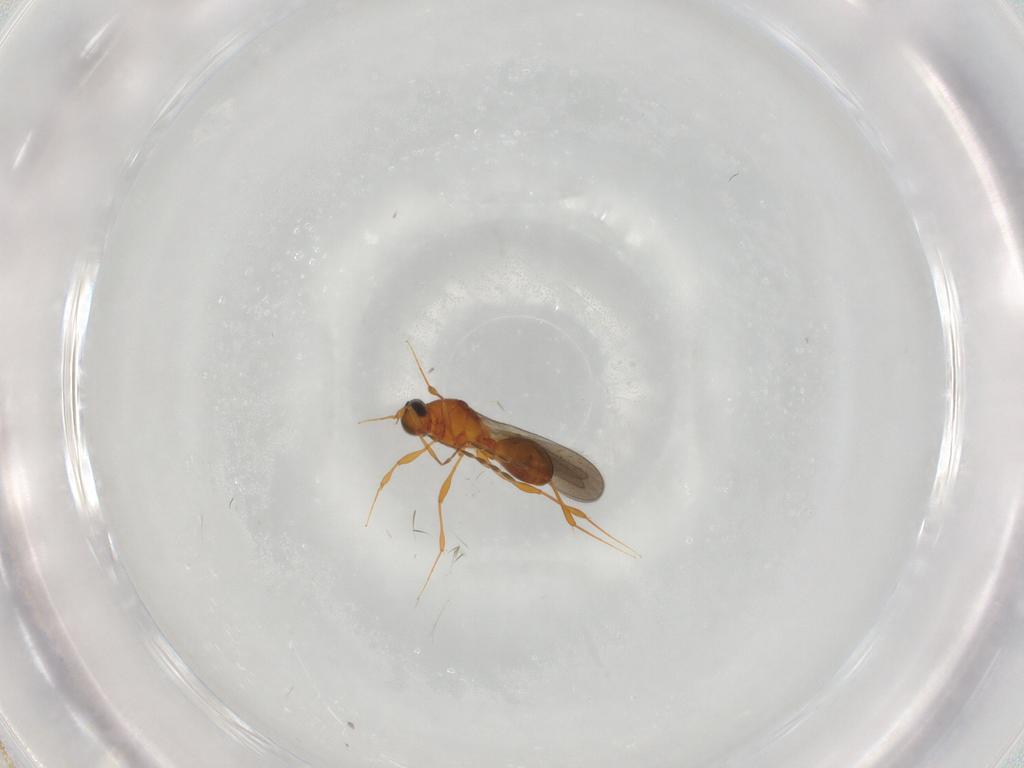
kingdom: Animalia
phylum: Arthropoda
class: Insecta
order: Hymenoptera
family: Platygastridae
